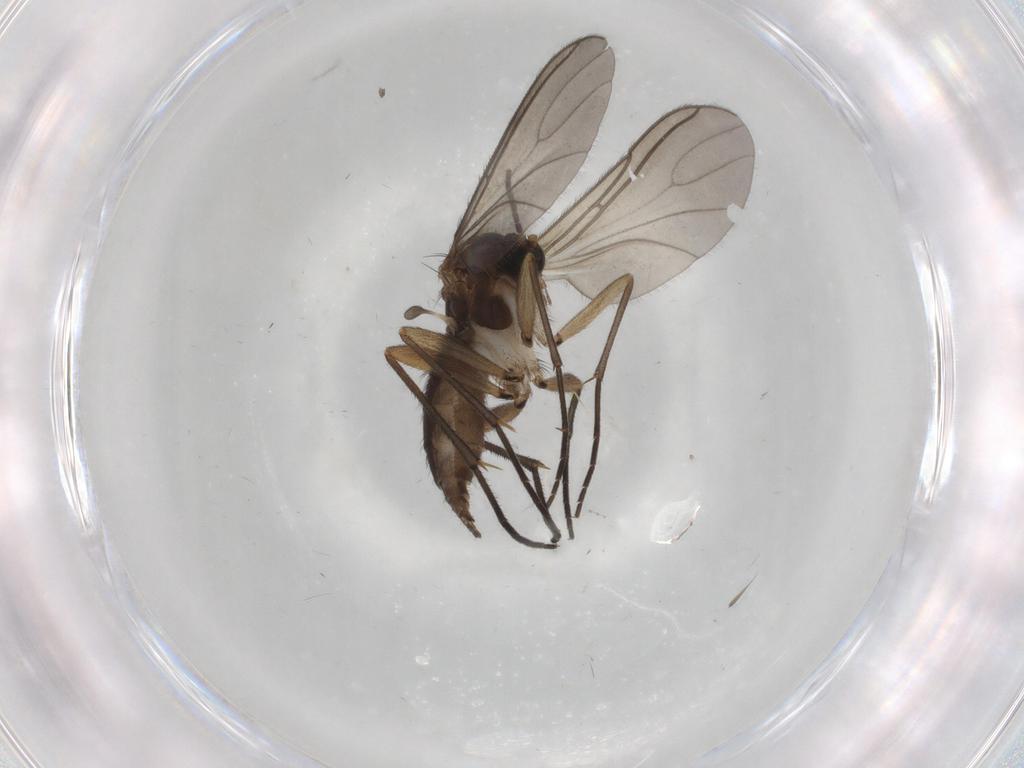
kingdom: Animalia
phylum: Arthropoda
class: Insecta
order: Diptera
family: Sciaridae
